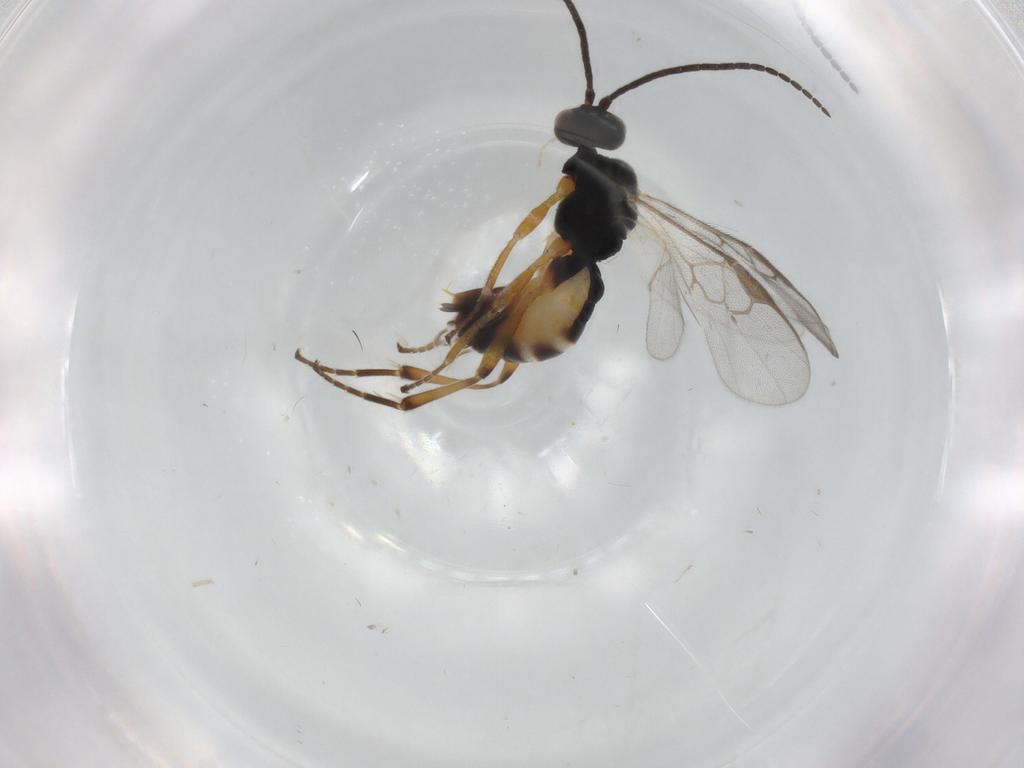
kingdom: Animalia
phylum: Arthropoda
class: Insecta
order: Hymenoptera
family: Braconidae
